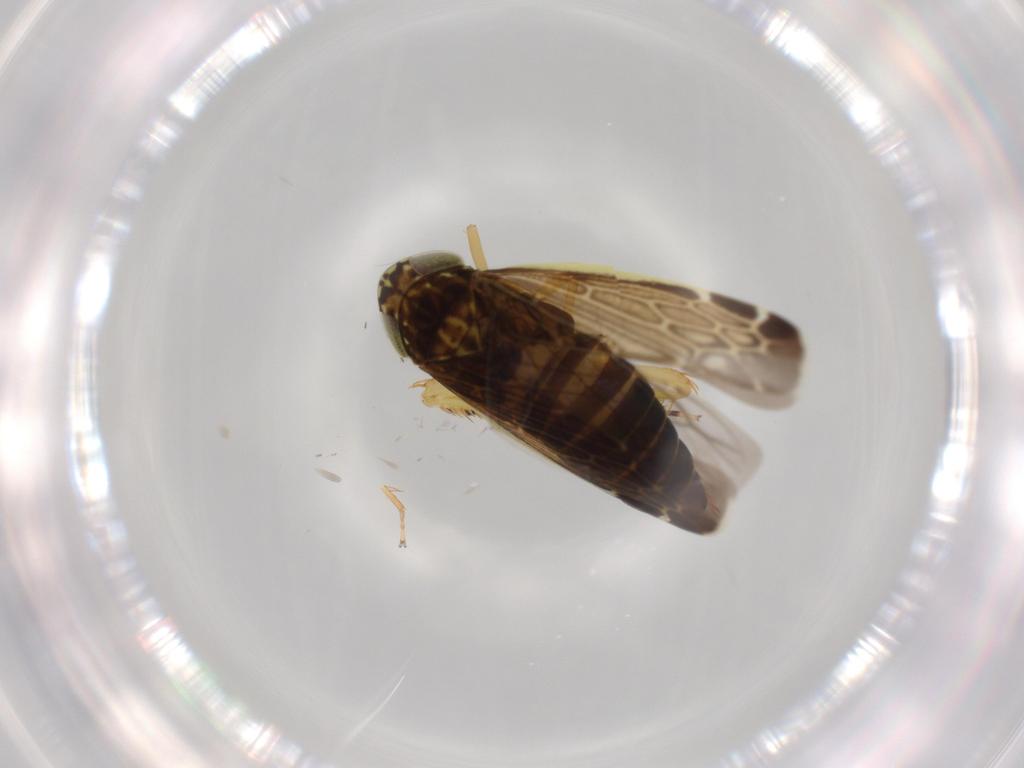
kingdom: Animalia
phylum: Arthropoda
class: Insecta
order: Hemiptera
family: Cicadellidae
